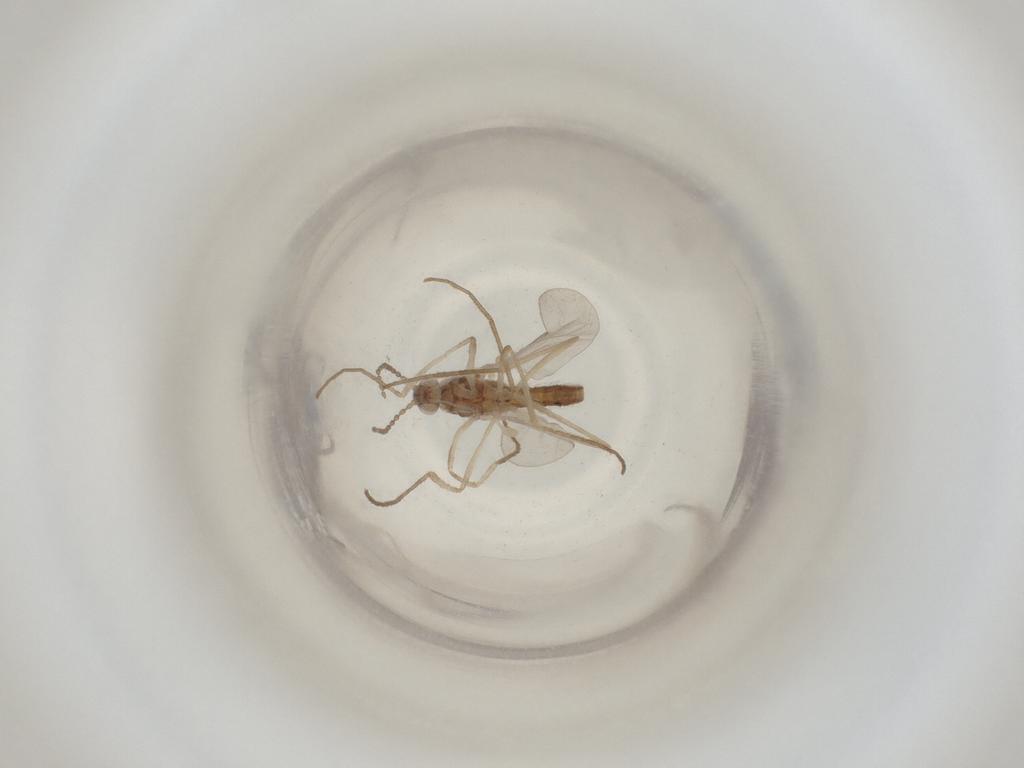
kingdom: Animalia
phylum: Arthropoda
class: Insecta
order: Diptera
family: Cecidomyiidae
